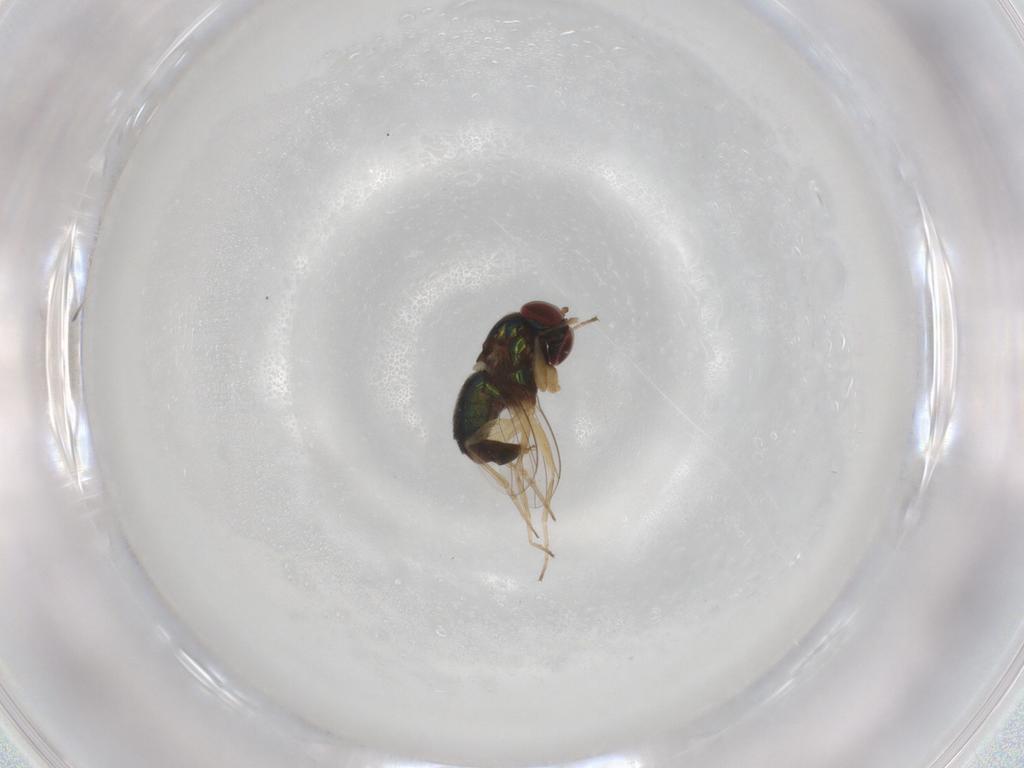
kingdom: Animalia
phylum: Arthropoda
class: Insecta
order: Diptera
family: Dolichopodidae
